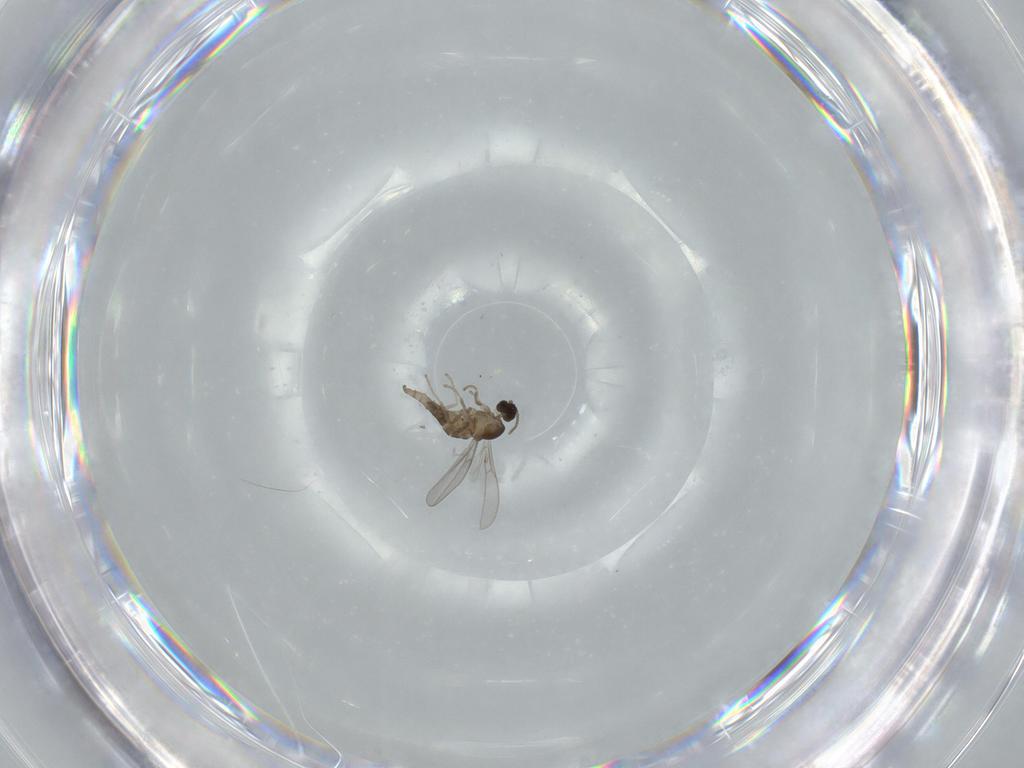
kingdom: Animalia
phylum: Arthropoda
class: Insecta
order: Diptera
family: Cecidomyiidae
